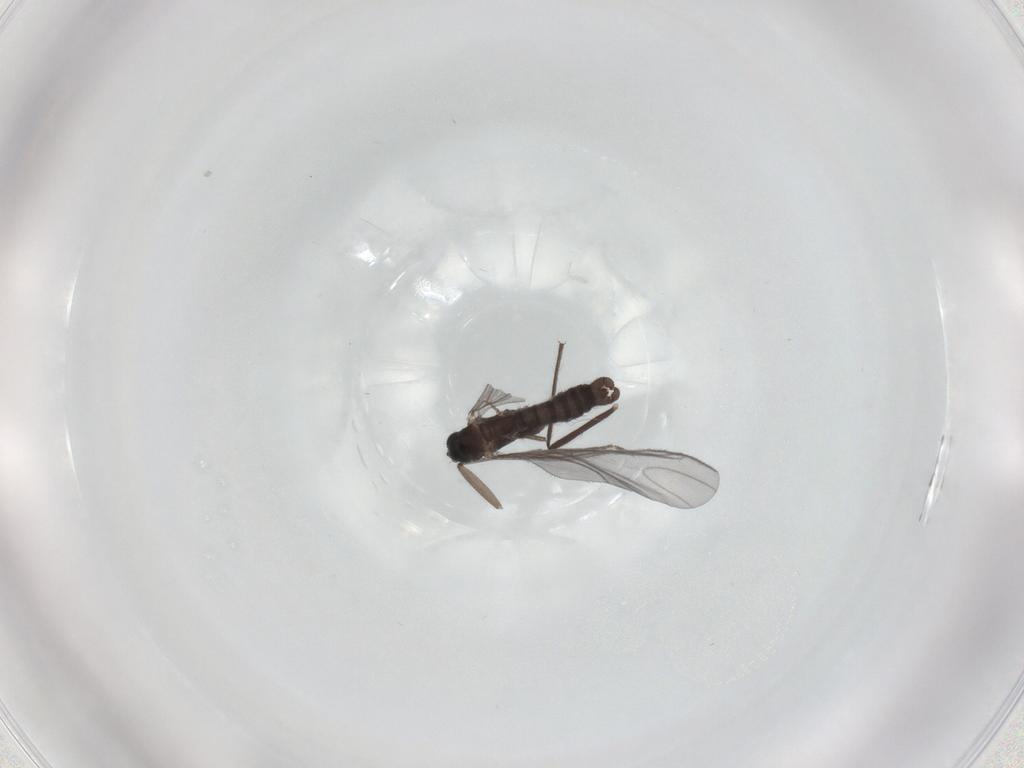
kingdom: Animalia
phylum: Arthropoda
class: Insecta
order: Diptera
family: Sciaridae
